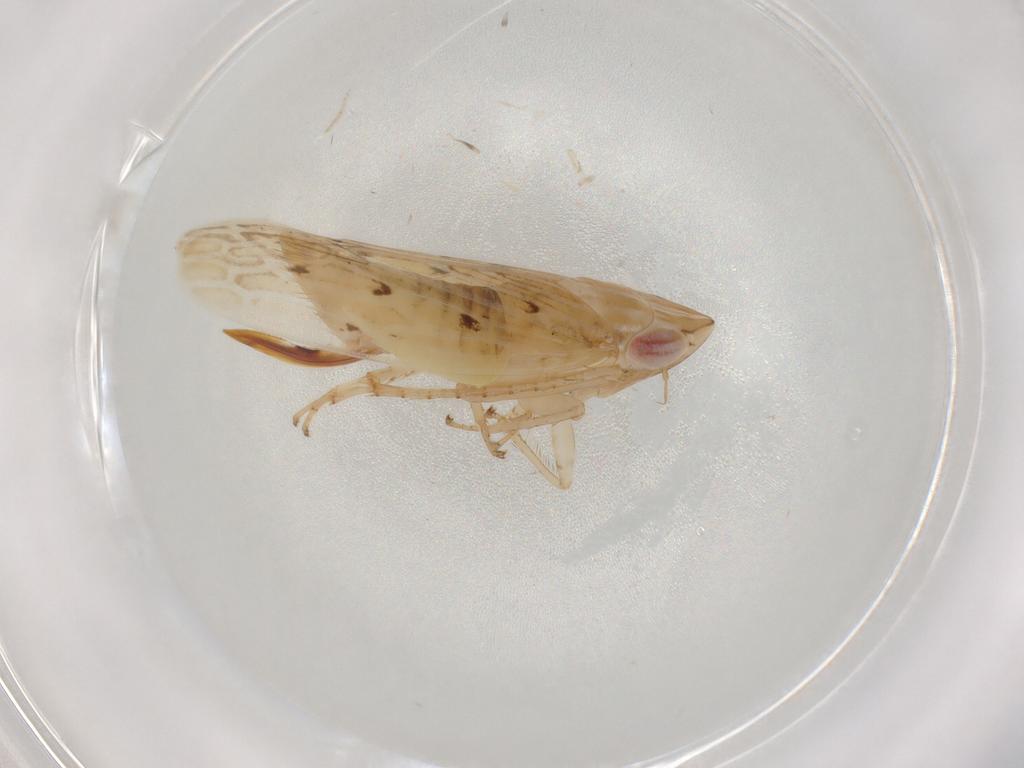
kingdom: Animalia
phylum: Arthropoda
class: Insecta
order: Hemiptera
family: Cicadellidae
